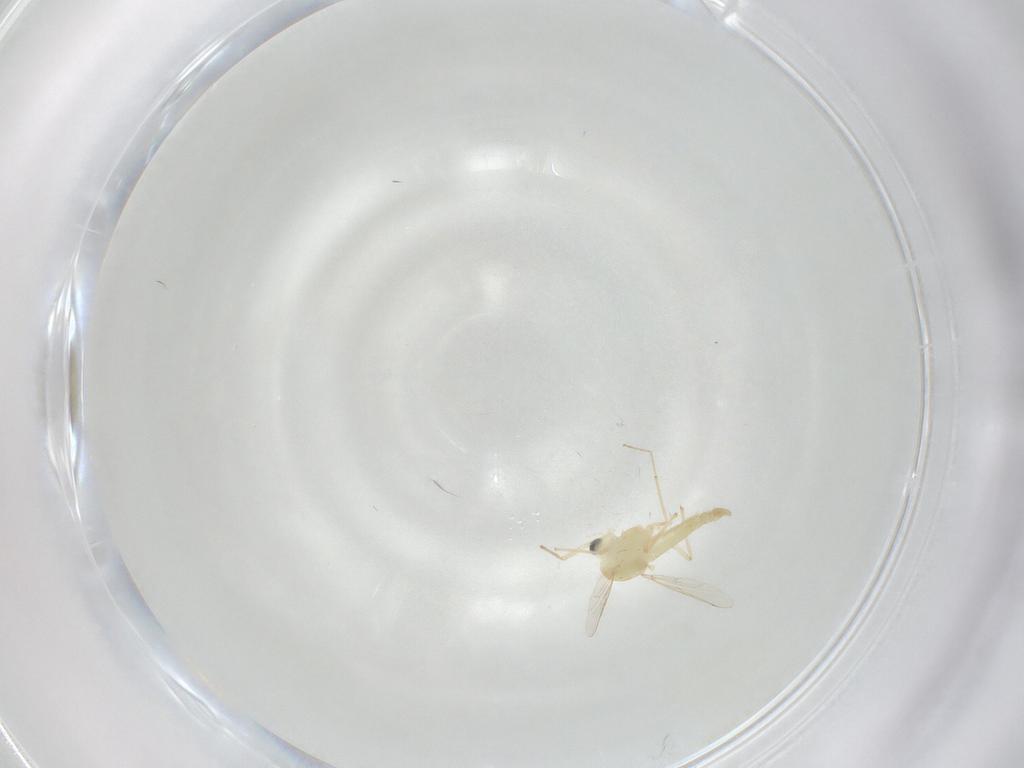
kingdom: Animalia
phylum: Arthropoda
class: Insecta
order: Diptera
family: Chironomidae
